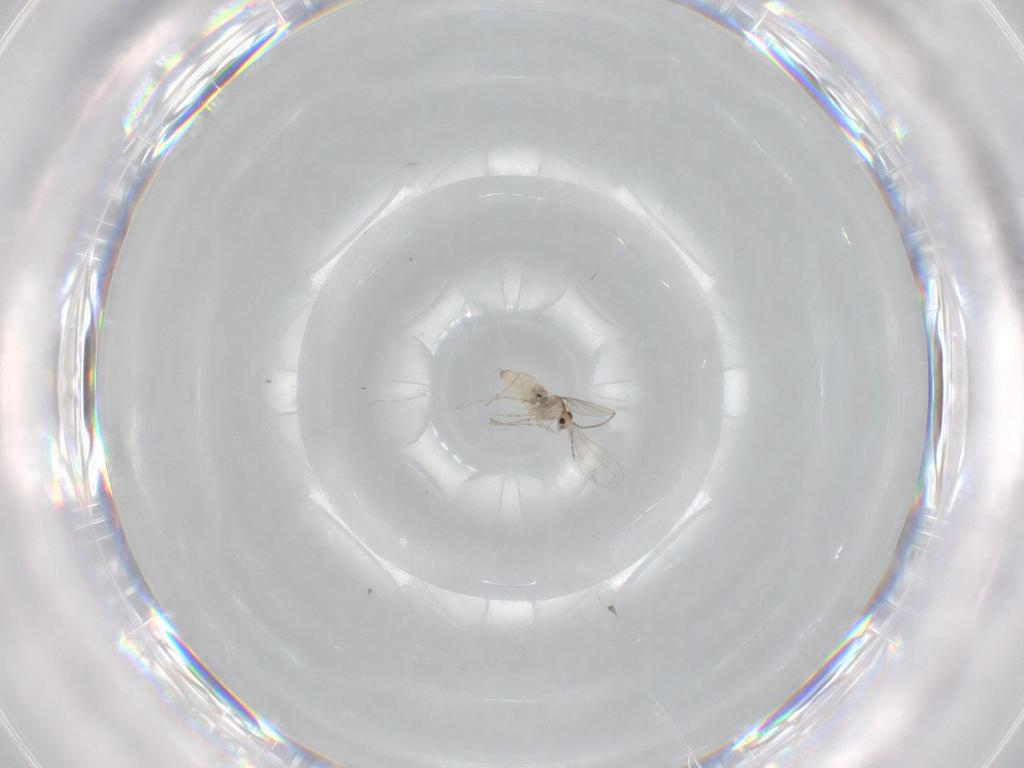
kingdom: Animalia
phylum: Arthropoda
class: Insecta
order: Diptera
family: Cecidomyiidae
